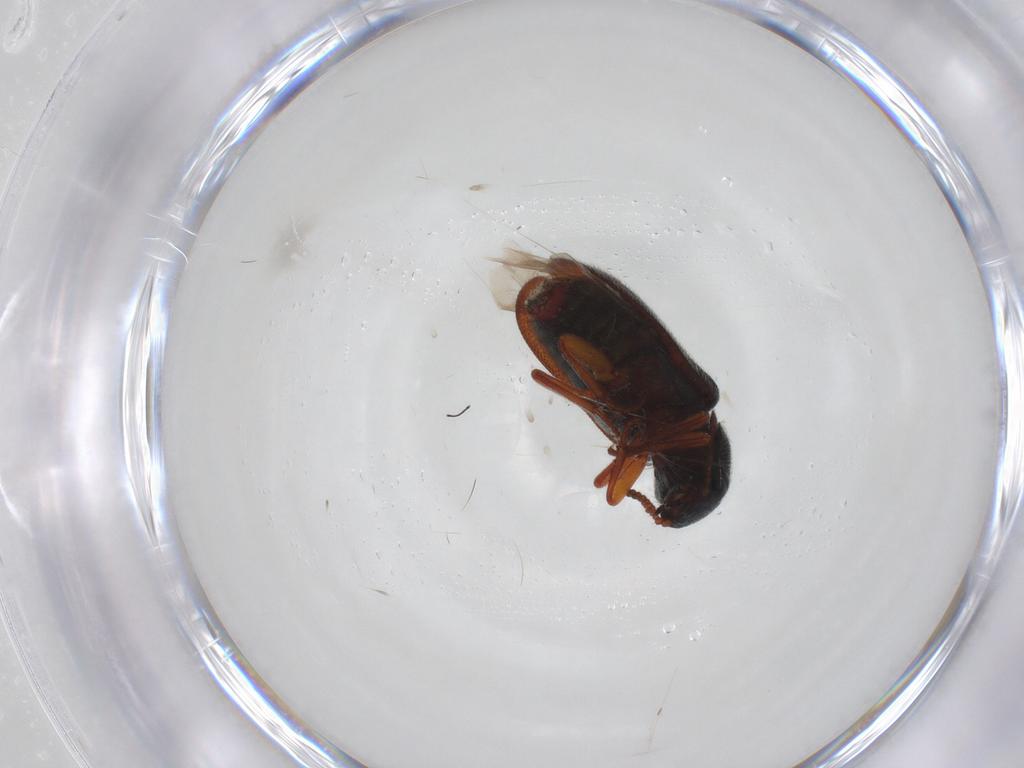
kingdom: Animalia
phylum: Arthropoda
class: Insecta
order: Coleoptera
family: Melyridae
